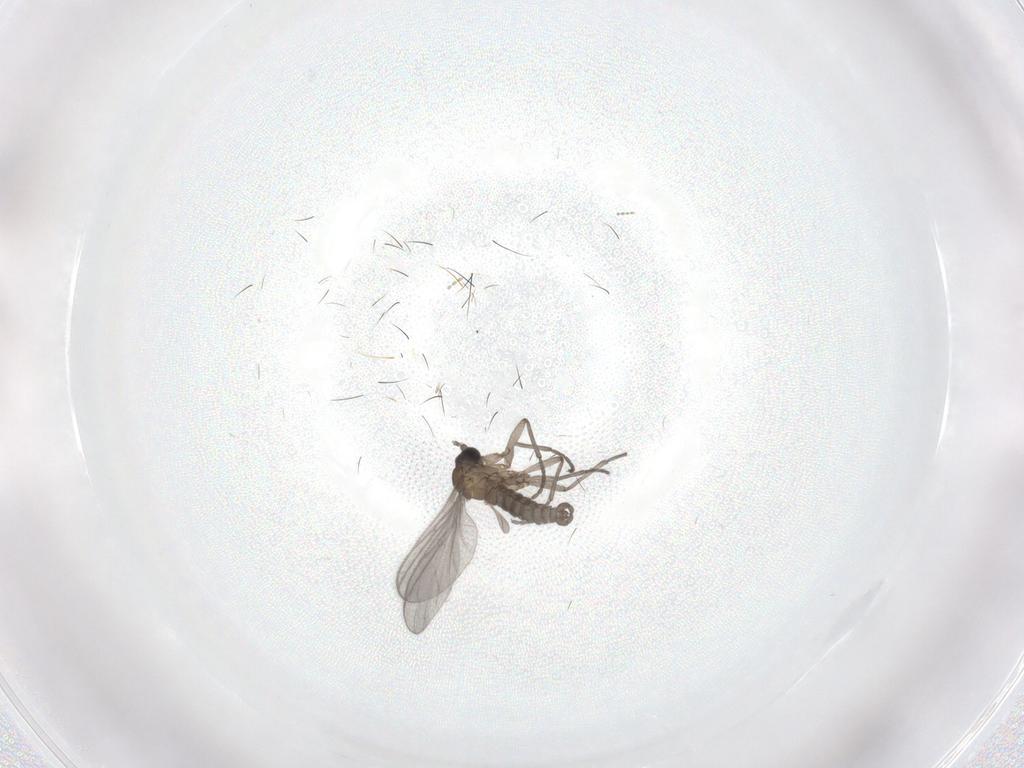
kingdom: Animalia
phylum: Arthropoda
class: Insecta
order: Diptera
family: Sciaridae
